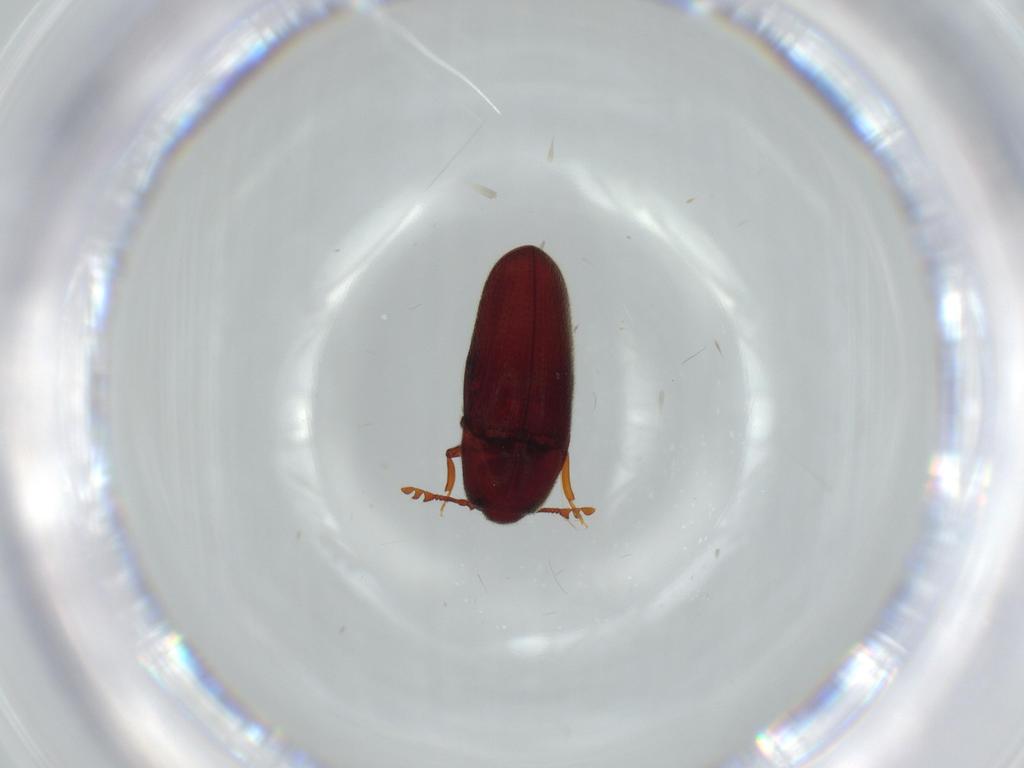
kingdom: Animalia
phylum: Arthropoda
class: Insecta
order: Coleoptera
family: Throscidae
